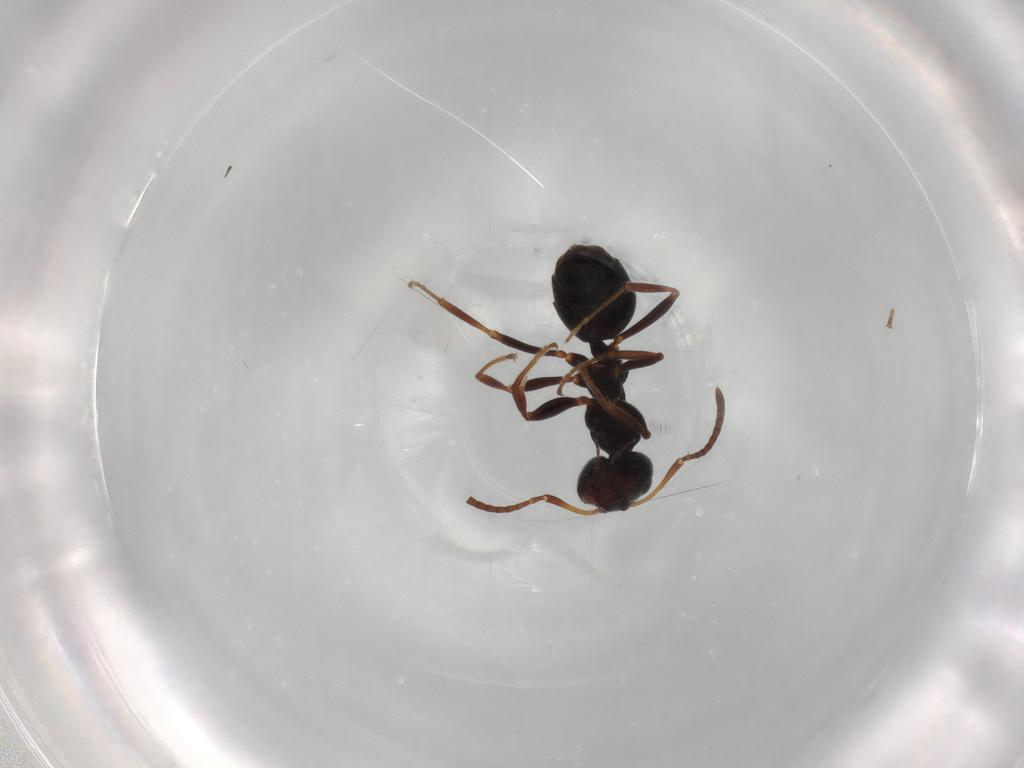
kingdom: Animalia
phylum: Arthropoda
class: Insecta
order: Hymenoptera
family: Formicidae
